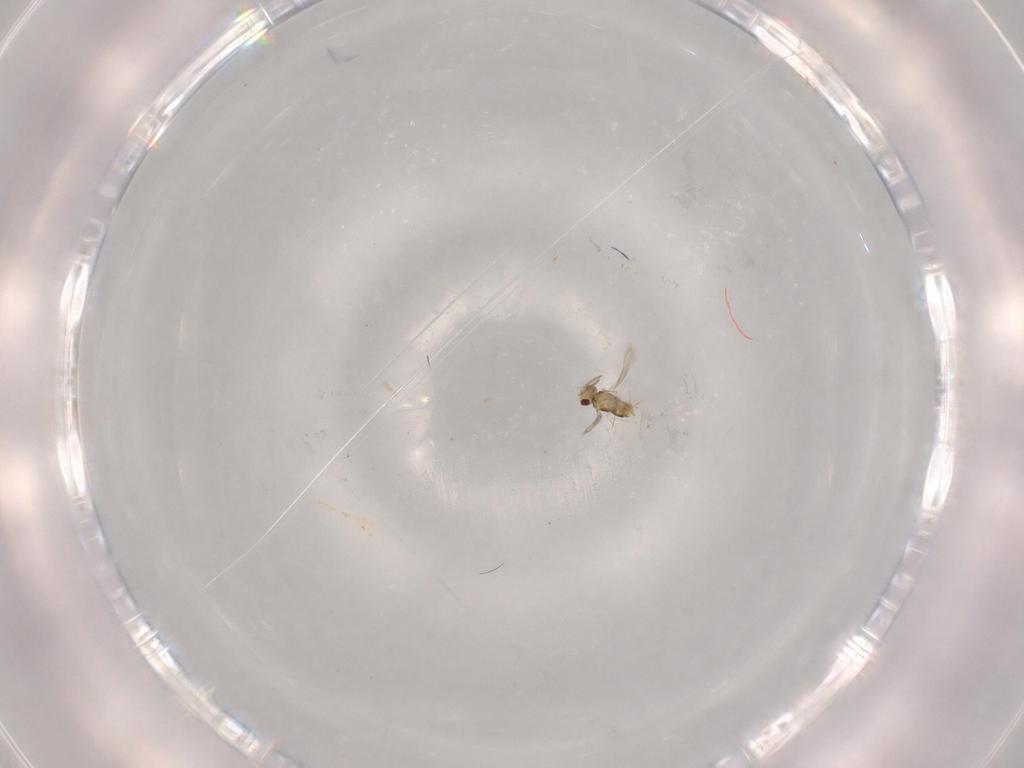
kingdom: Animalia
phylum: Arthropoda
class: Insecta
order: Hymenoptera
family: Aphelinidae
